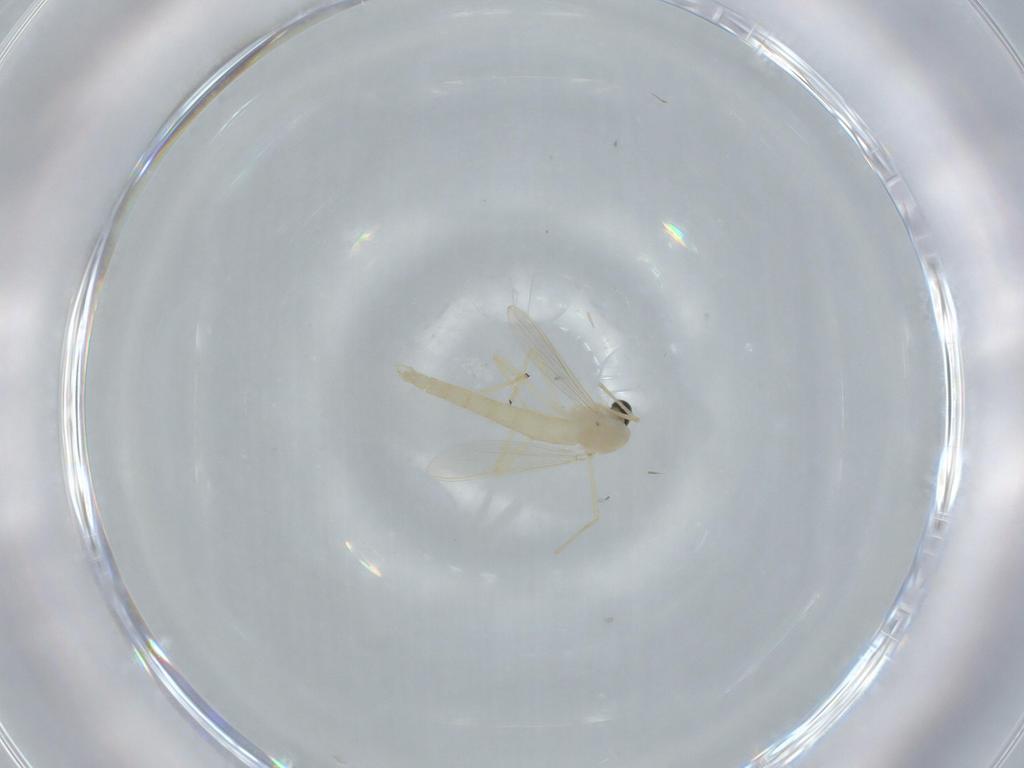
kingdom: Animalia
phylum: Arthropoda
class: Insecta
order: Diptera
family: Chironomidae
